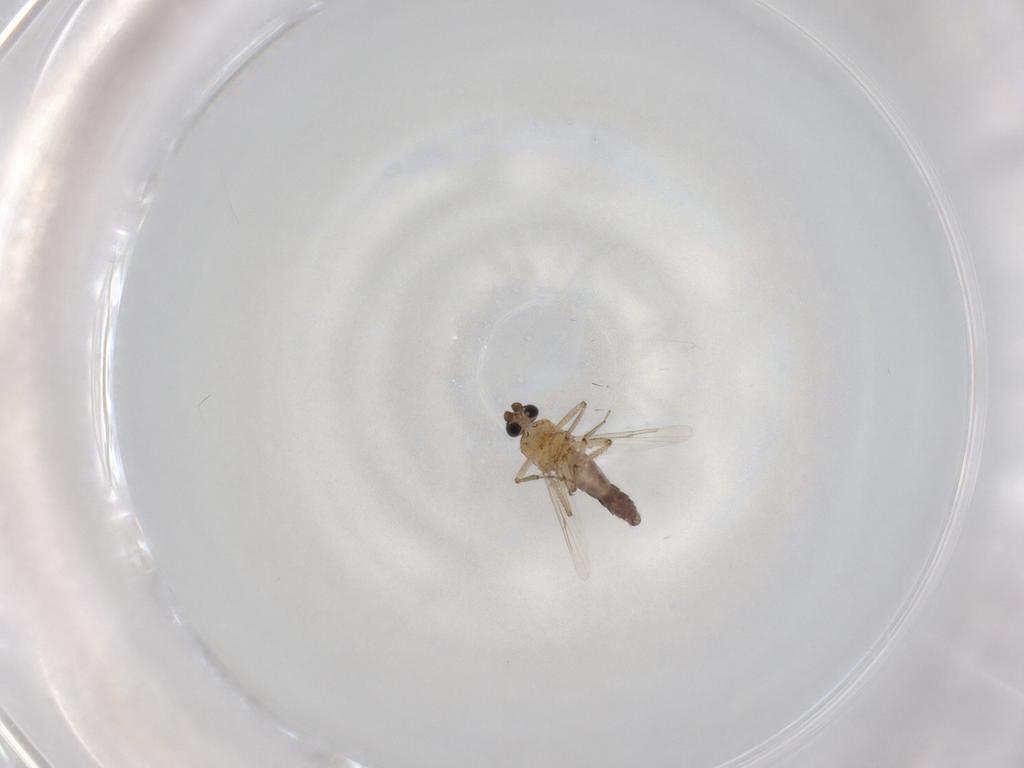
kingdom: Animalia
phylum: Arthropoda
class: Insecta
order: Diptera
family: Ceratopogonidae
